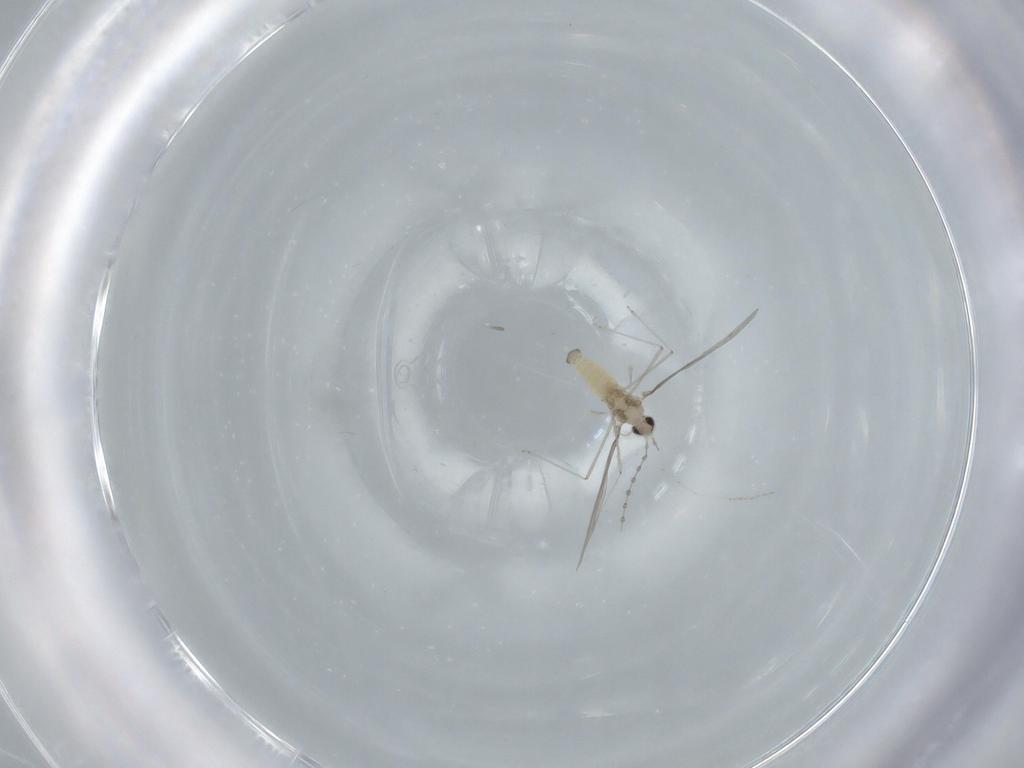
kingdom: Animalia
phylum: Arthropoda
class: Insecta
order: Diptera
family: Cecidomyiidae
